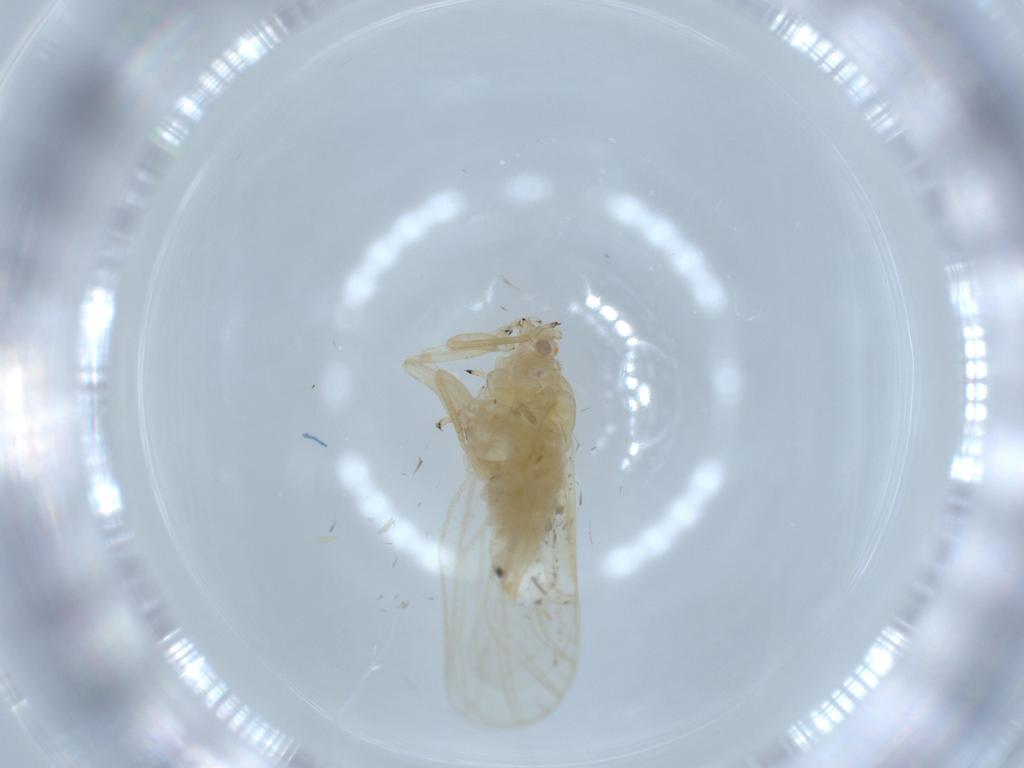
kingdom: Animalia
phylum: Arthropoda
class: Insecta
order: Hemiptera
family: Psyllidae
